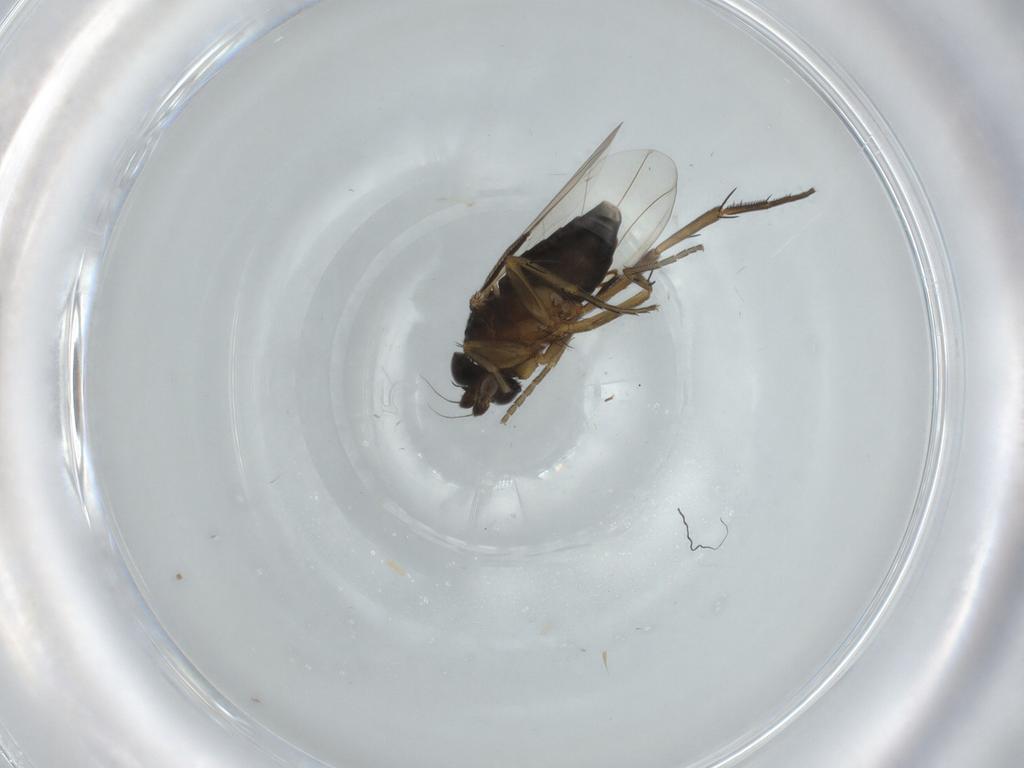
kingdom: Animalia
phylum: Arthropoda
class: Insecta
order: Diptera
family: Phoridae
